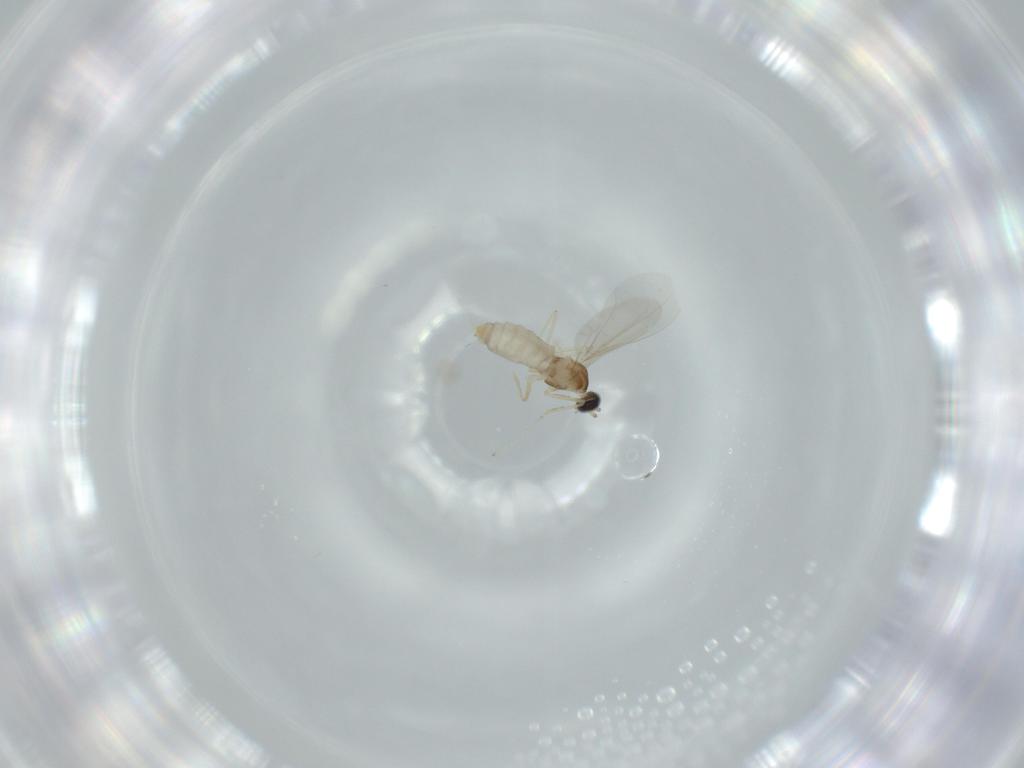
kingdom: Animalia
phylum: Arthropoda
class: Insecta
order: Diptera
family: Cecidomyiidae
